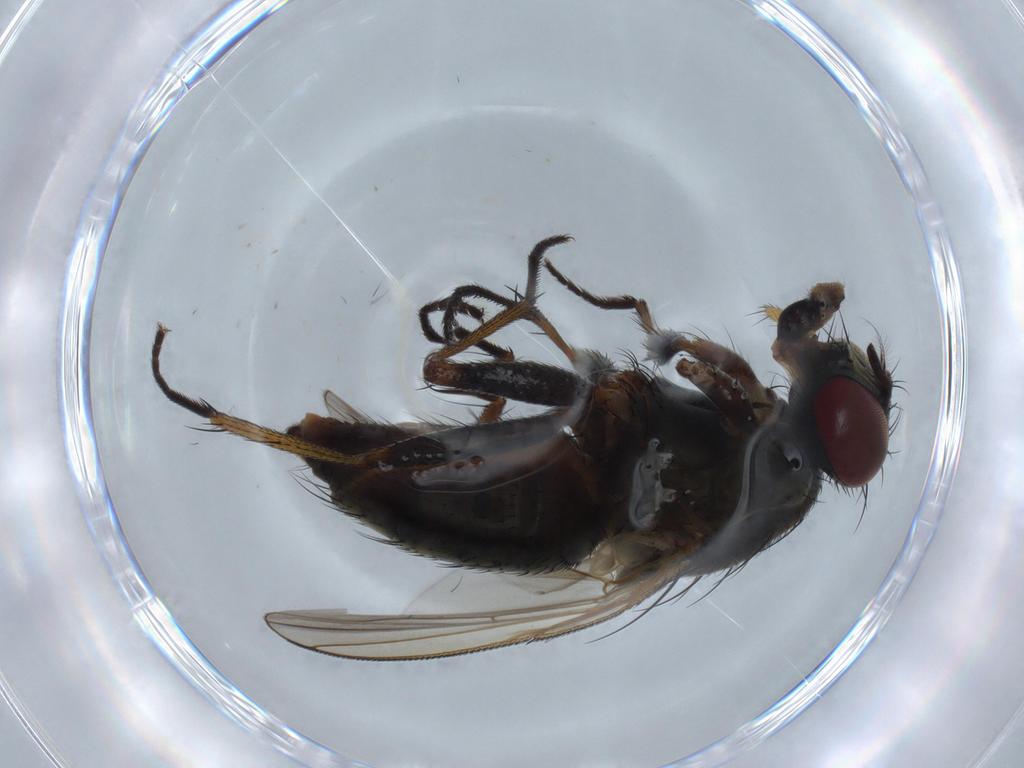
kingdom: Animalia
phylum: Arthropoda
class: Insecta
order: Diptera
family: Muscidae
